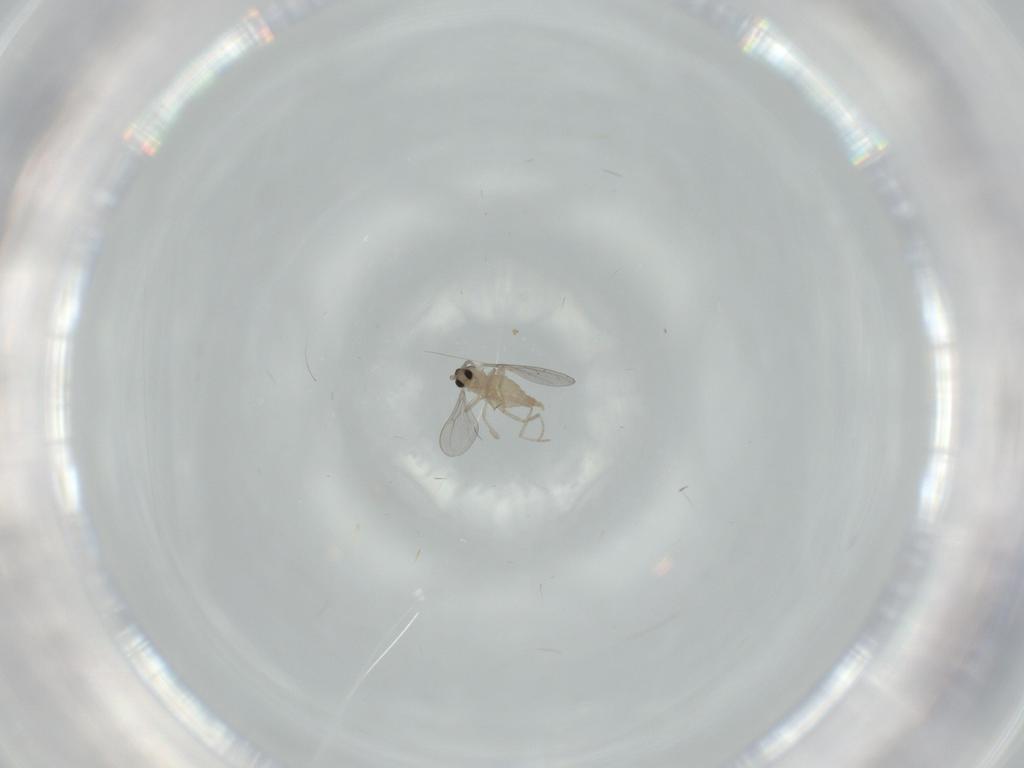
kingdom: Animalia
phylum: Arthropoda
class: Insecta
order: Diptera
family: Cecidomyiidae
